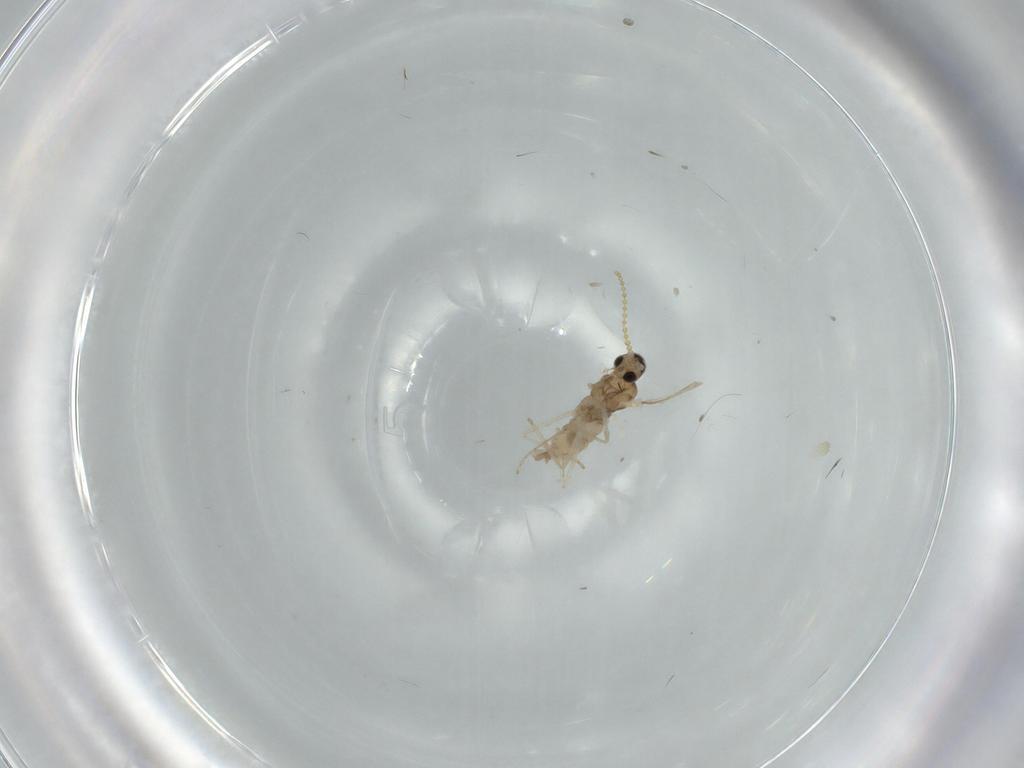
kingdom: Animalia
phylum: Arthropoda
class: Insecta
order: Diptera
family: Cecidomyiidae
